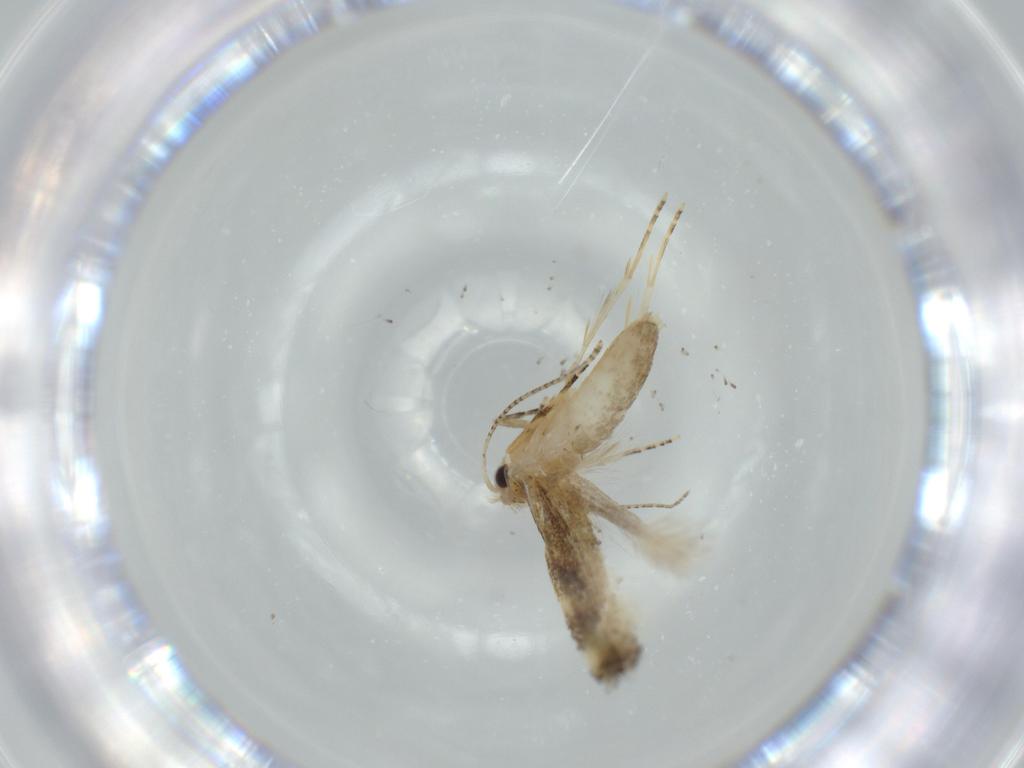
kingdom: Animalia
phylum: Arthropoda
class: Insecta
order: Lepidoptera
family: Bucculatricidae
